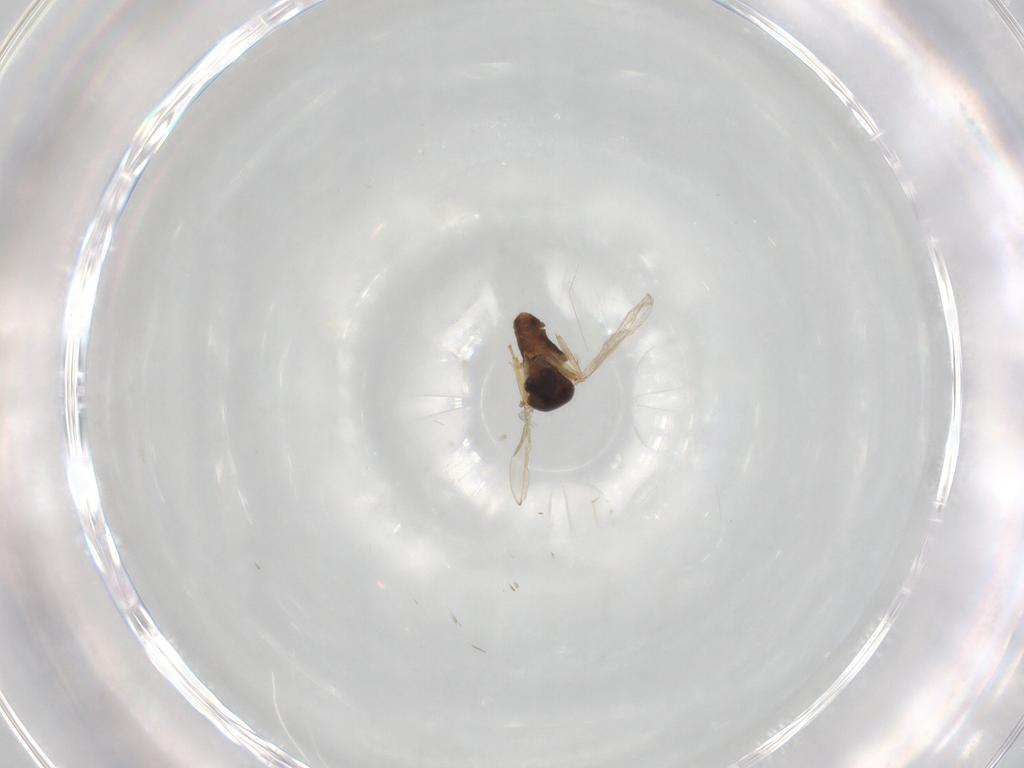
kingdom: Animalia
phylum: Arthropoda
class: Insecta
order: Diptera
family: Ceratopogonidae
